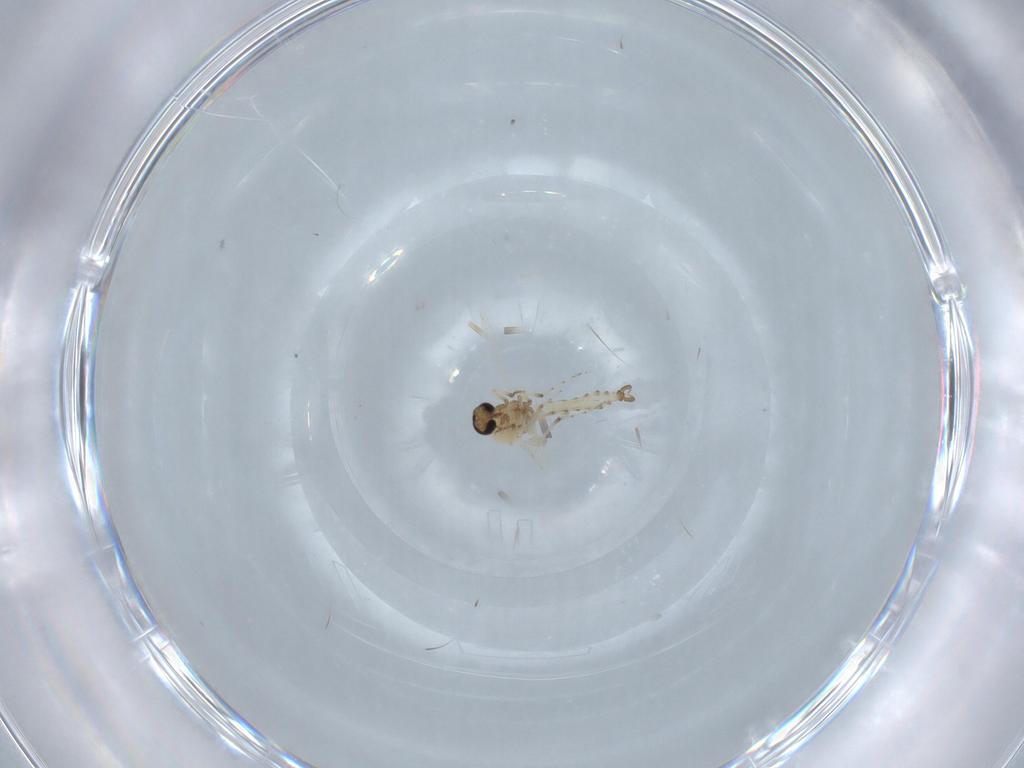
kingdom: Animalia
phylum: Arthropoda
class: Insecta
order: Diptera
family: Ceratopogonidae
